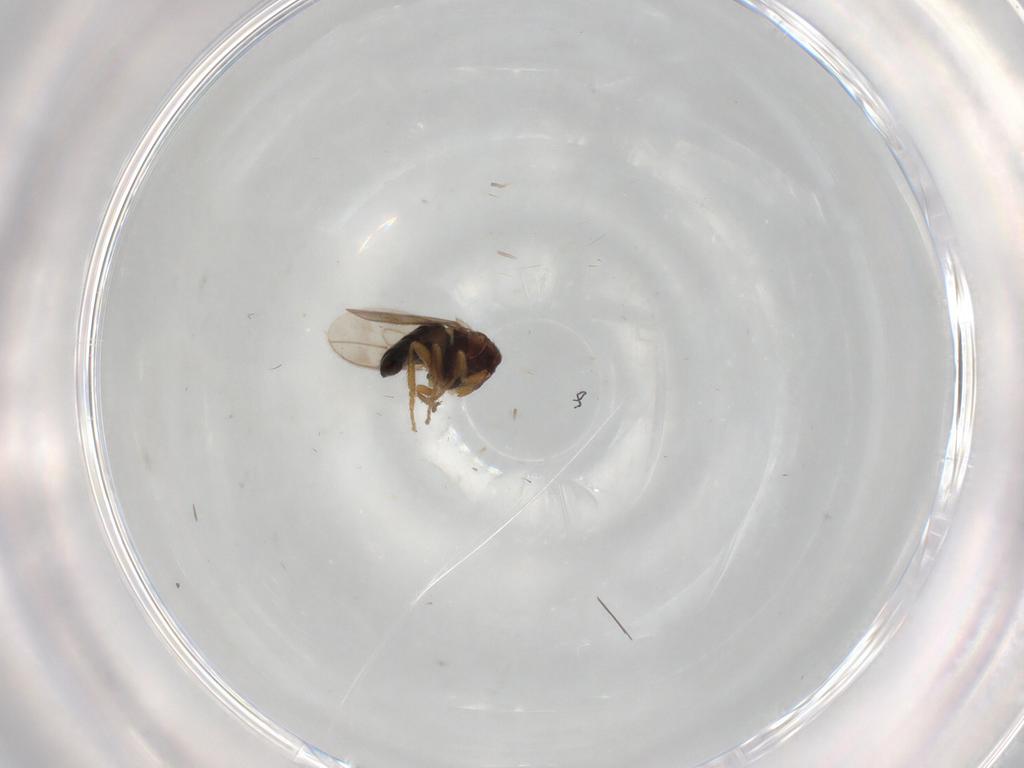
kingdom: Animalia
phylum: Arthropoda
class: Insecta
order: Diptera
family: Sphaeroceridae
